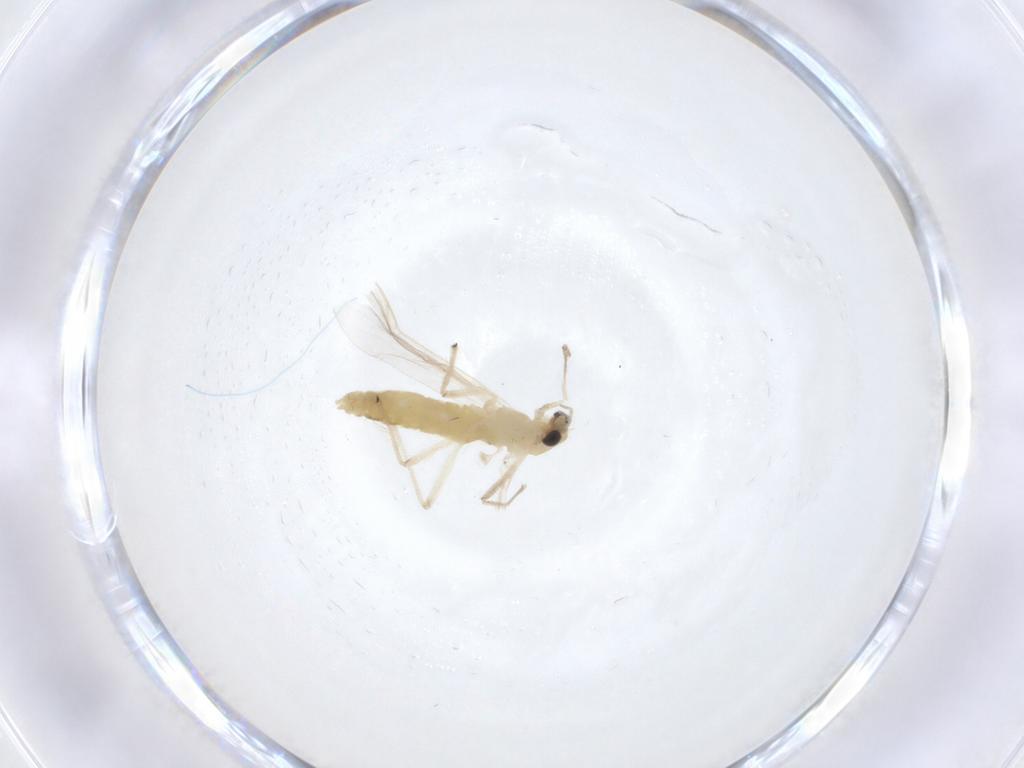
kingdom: Animalia
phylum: Arthropoda
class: Insecta
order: Diptera
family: Chironomidae
